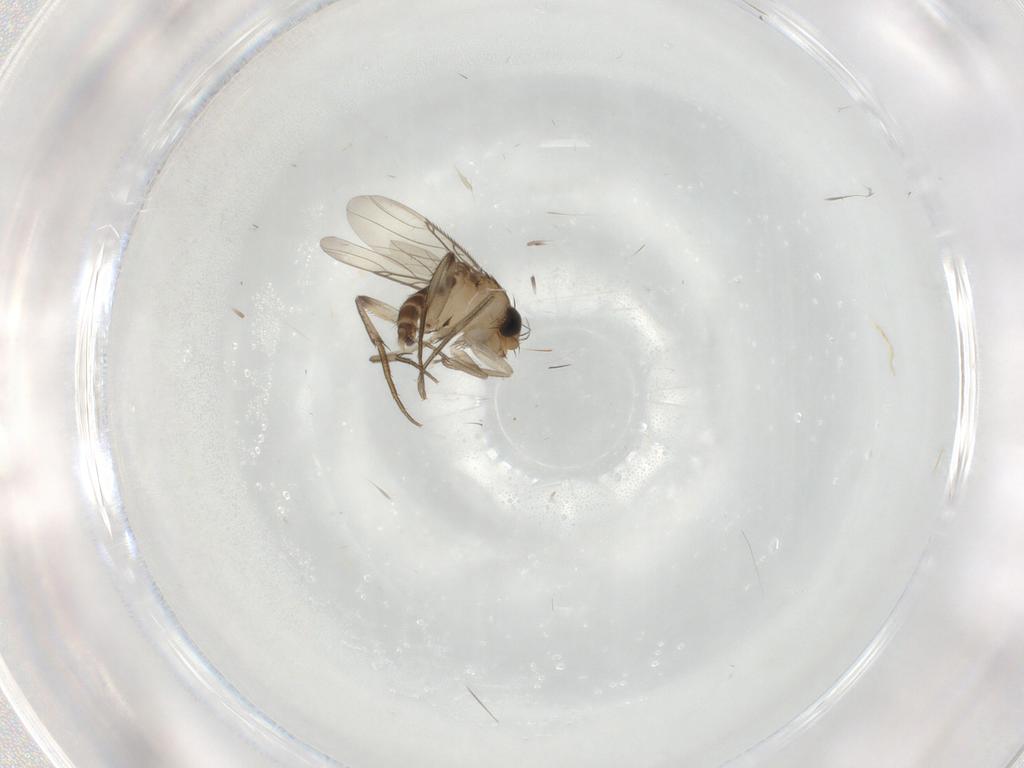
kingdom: Animalia
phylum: Arthropoda
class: Insecta
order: Diptera
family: Phoridae
